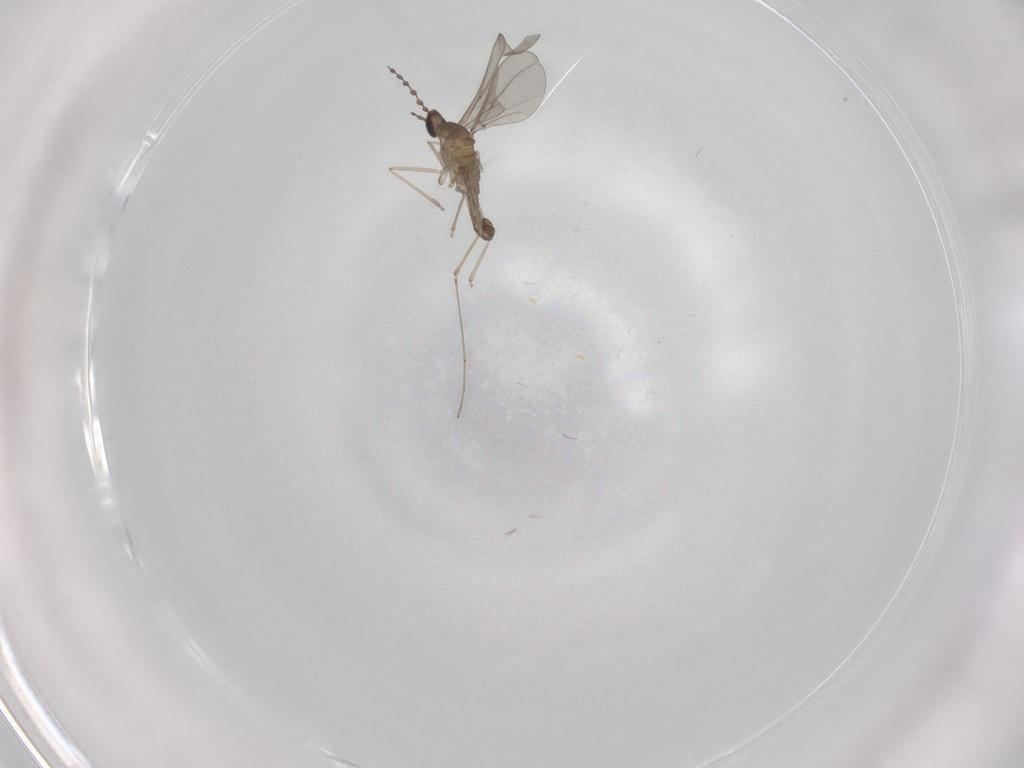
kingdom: Animalia
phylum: Arthropoda
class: Insecta
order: Diptera
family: Cecidomyiidae
